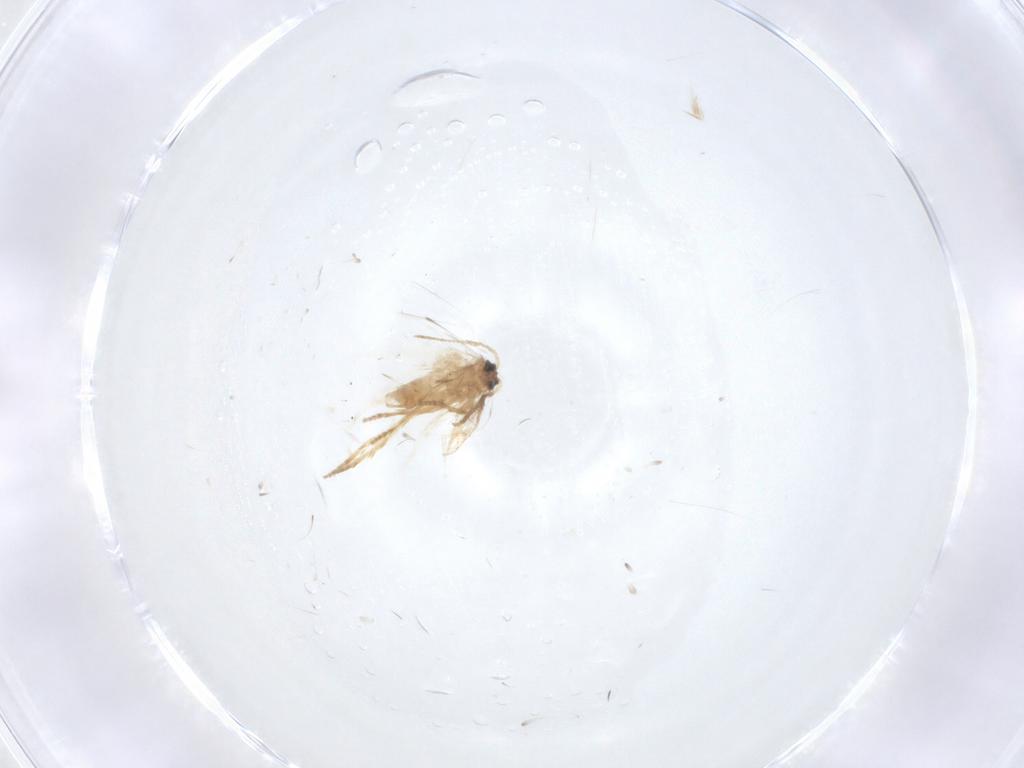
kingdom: Animalia
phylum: Arthropoda
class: Insecta
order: Lepidoptera
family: Nepticulidae
